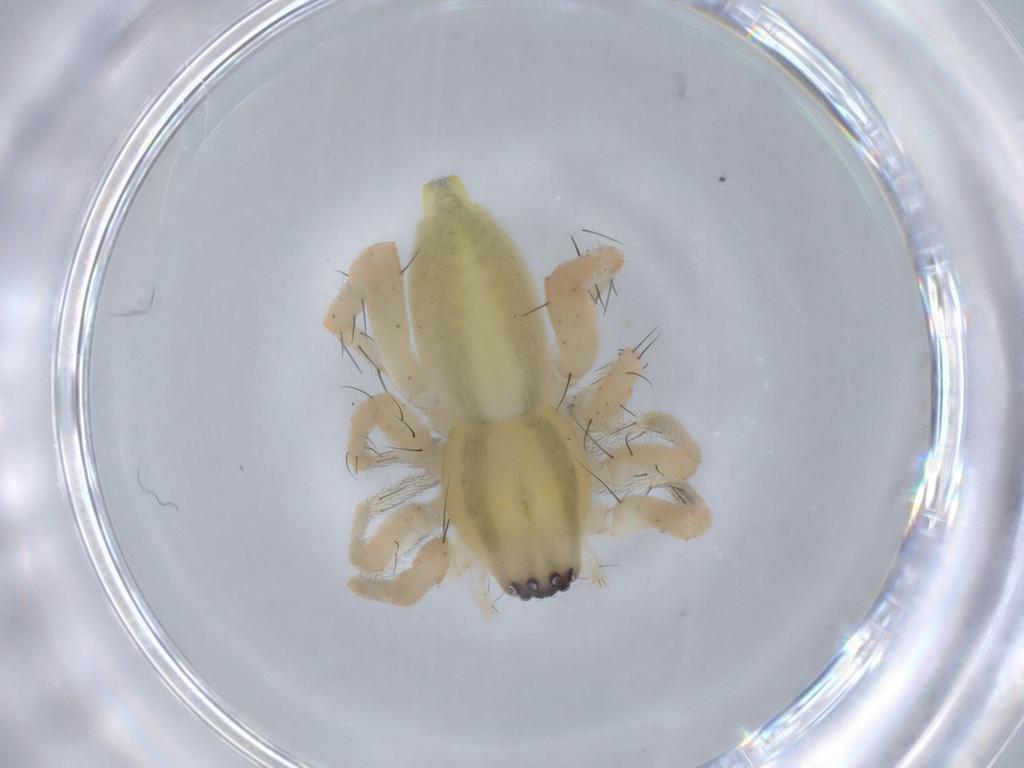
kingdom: Animalia
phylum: Arthropoda
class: Arachnida
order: Araneae
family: Anyphaenidae
